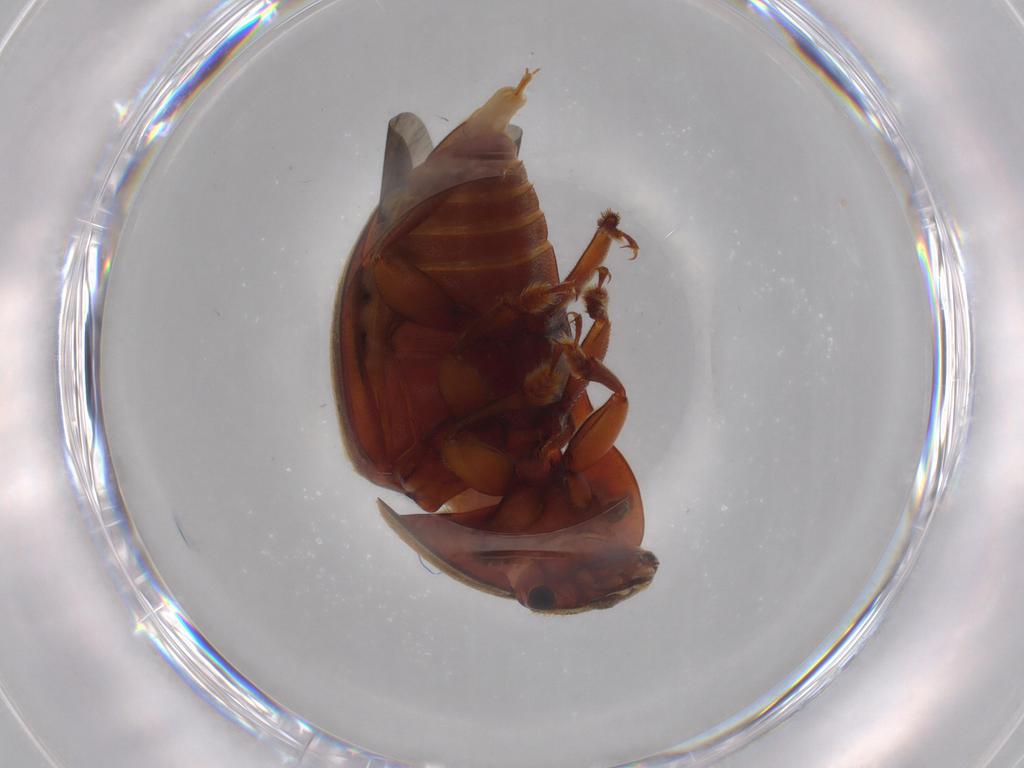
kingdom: Animalia
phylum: Arthropoda
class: Insecta
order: Coleoptera
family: Nitidulidae
